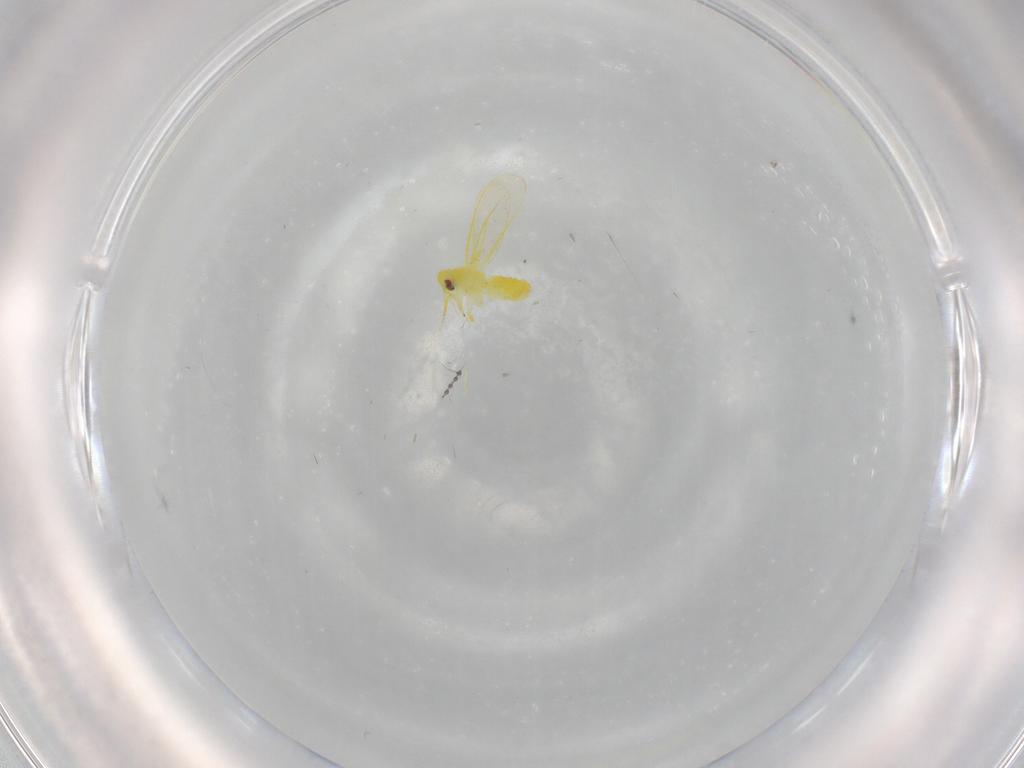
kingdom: Animalia
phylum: Arthropoda
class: Insecta
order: Hemiptera
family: Aleyrodidae
